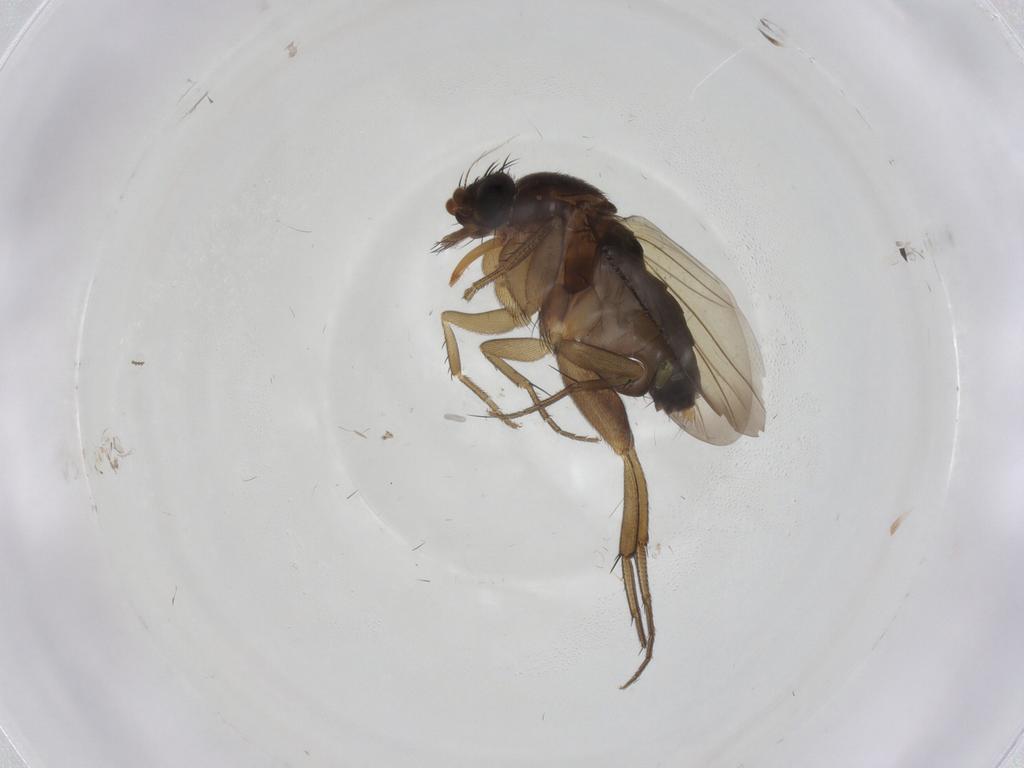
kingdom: Animalia
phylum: Arthropoda
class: Insecta
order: Diptera
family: Phoridae
